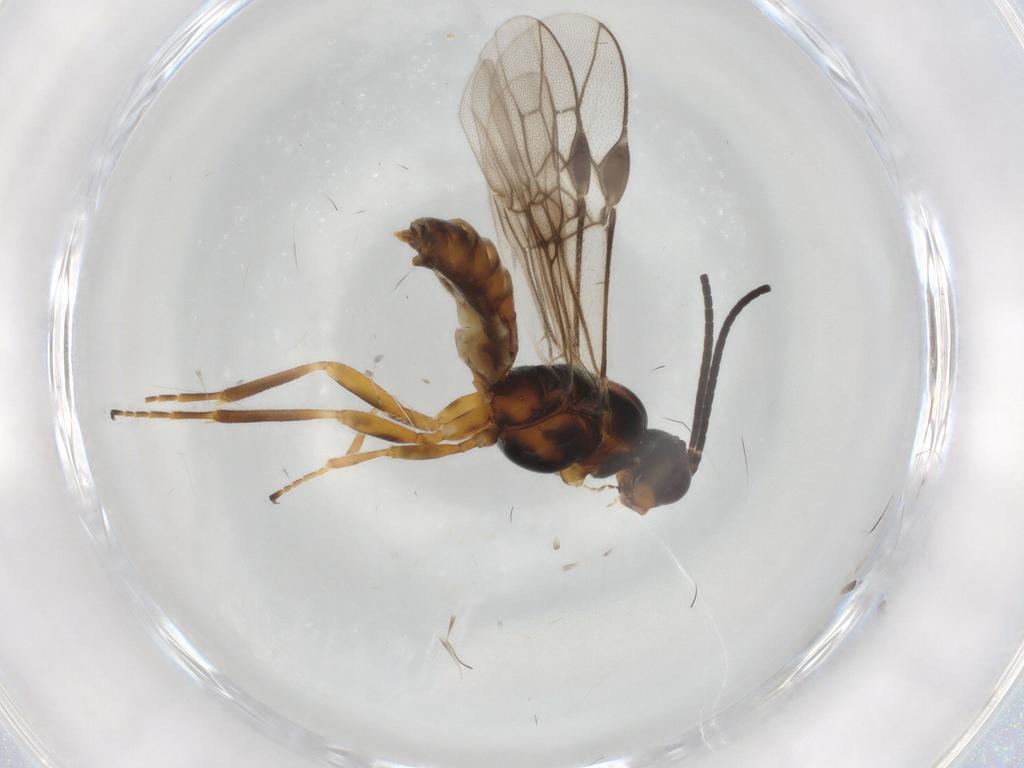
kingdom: Animalia
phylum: Arthropoda
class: Insecta
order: Hymenoptera
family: Braconidae
